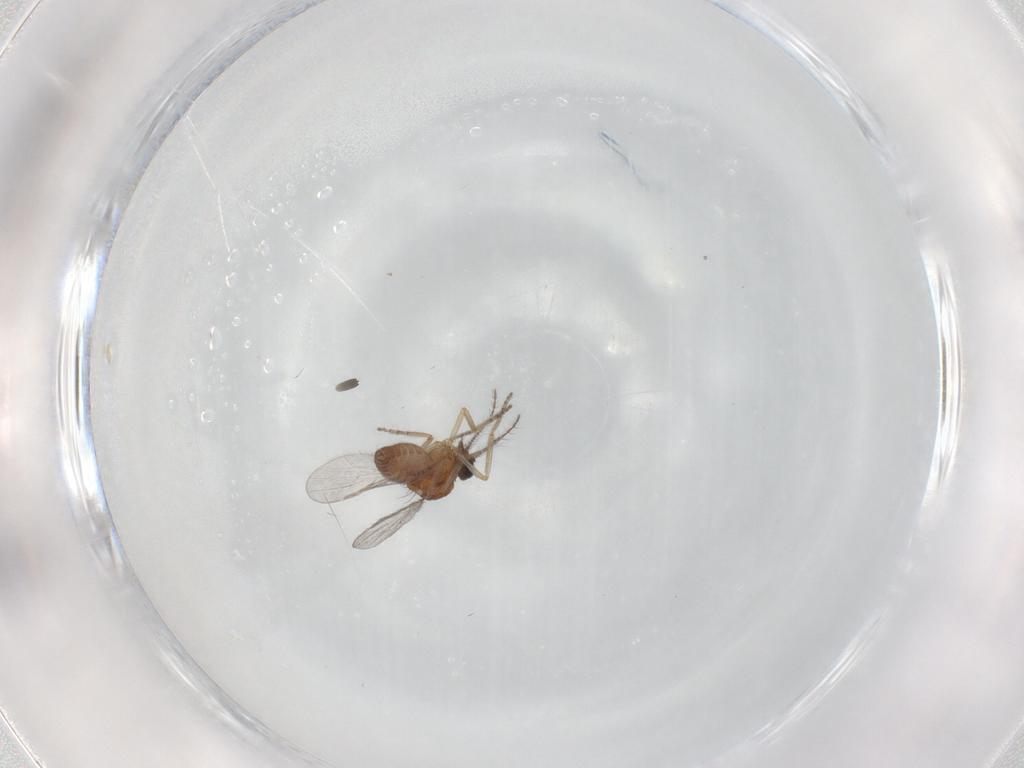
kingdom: Animalia
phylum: Arthropoda
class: Insecta
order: Diptera
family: Ceratopogonidae
